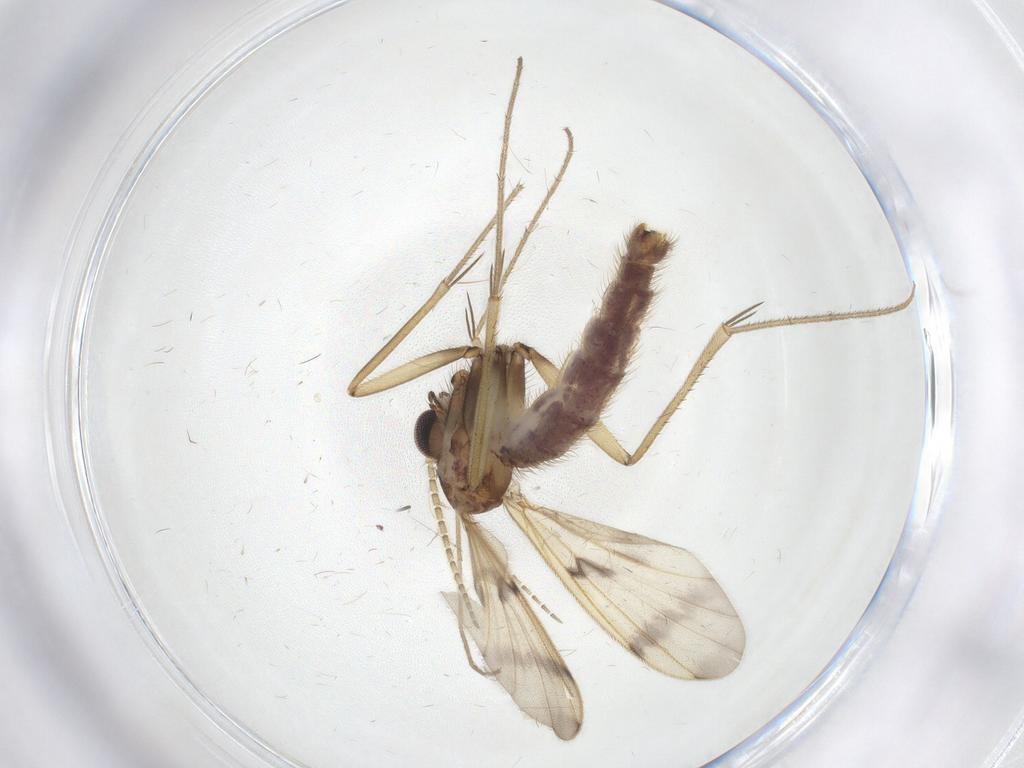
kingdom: Animalia
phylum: Arthropoda
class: Insecta
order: Diptera
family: Phoridae
